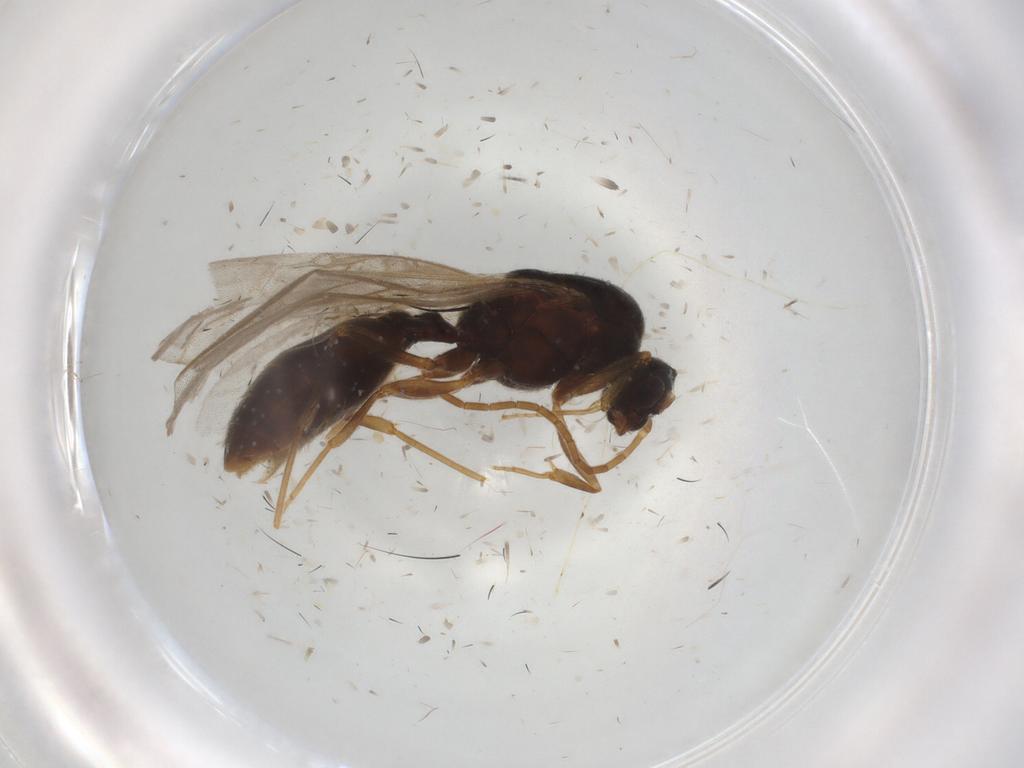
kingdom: Animalia
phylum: Arthropoda
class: Insecta
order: Hymenoptera
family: Formicidae
